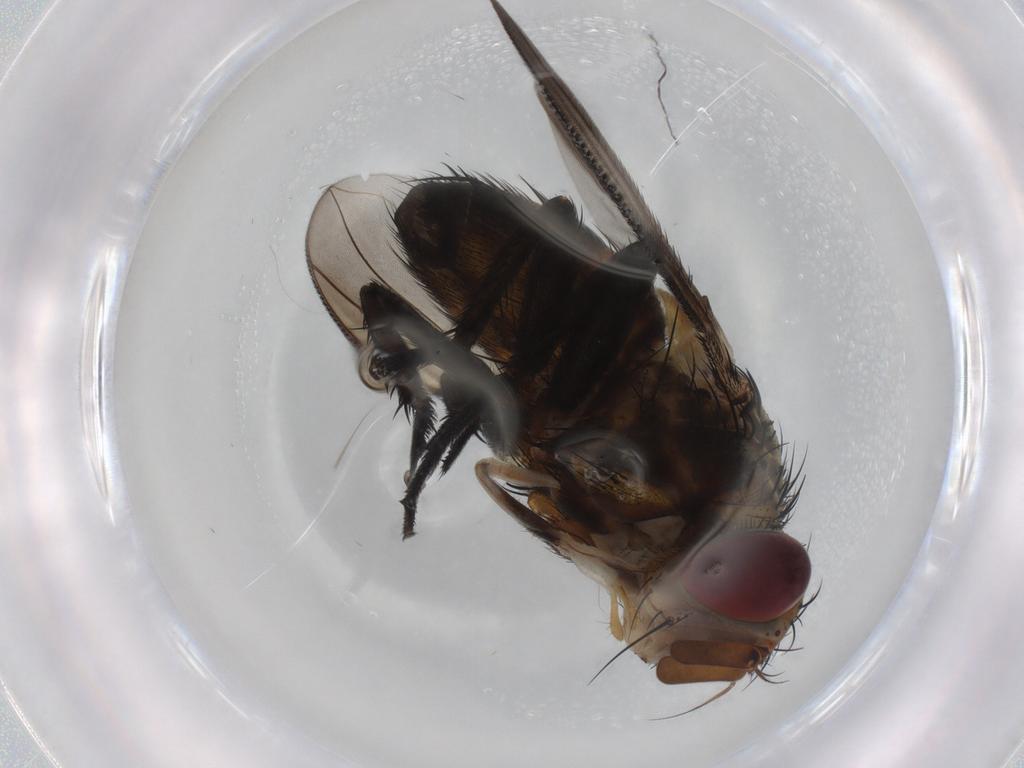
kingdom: Animalia
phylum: Arthropoda
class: Insecta
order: Diptera
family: Tachinidae
